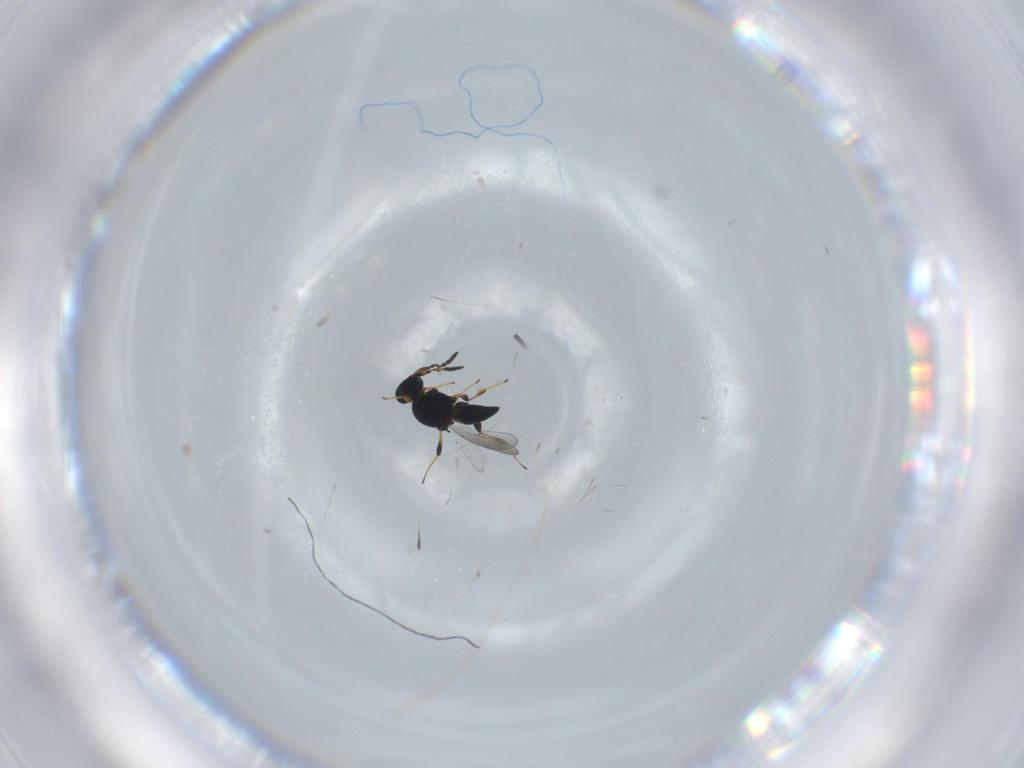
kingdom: Animalia
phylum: Arthropoda
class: Insecta
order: Hymenoptera
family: Platygastridae
